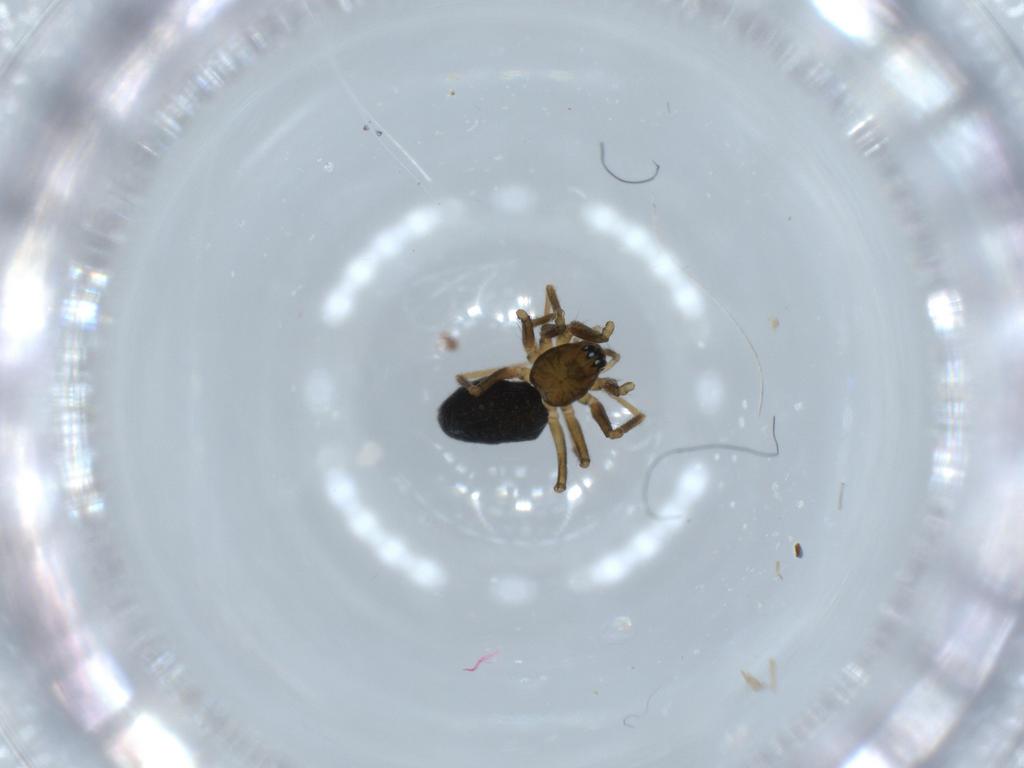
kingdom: Animalia
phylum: Arthropoda
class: Arachnida
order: Araneae
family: Linyphiidae
